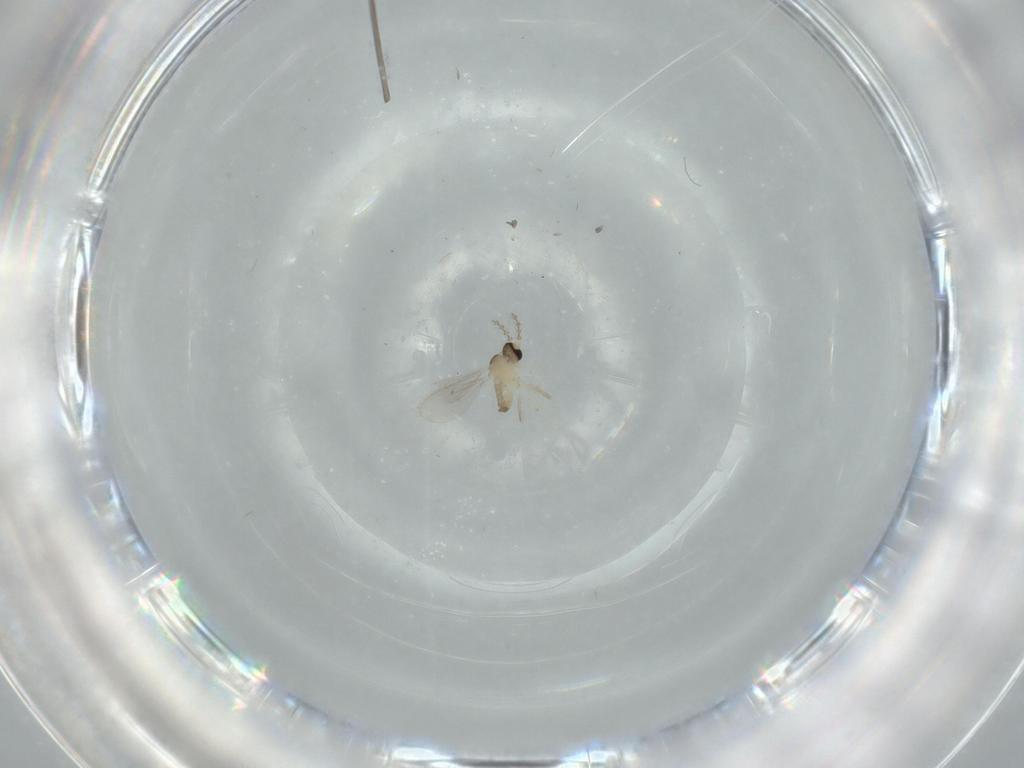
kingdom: Animalia
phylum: Arthropoda
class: Insecta
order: Diptera
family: Cecidomyiidae
